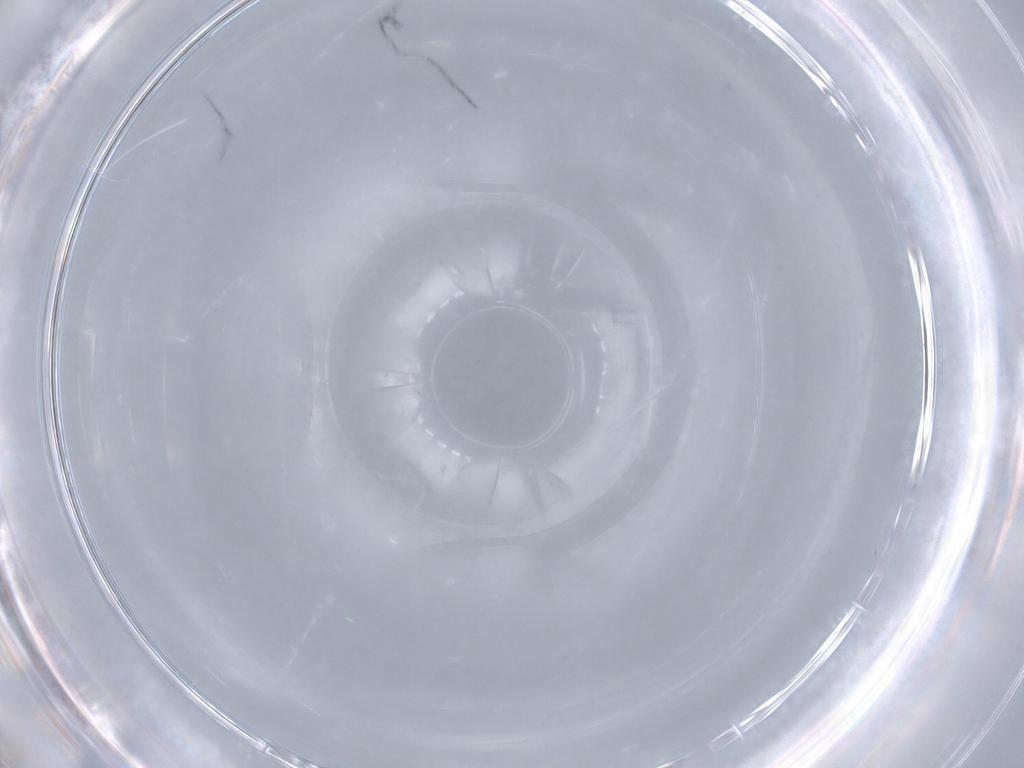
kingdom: Animalia
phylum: Arthropoda
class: Insecta
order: Diptera
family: Cecidomyiidae
